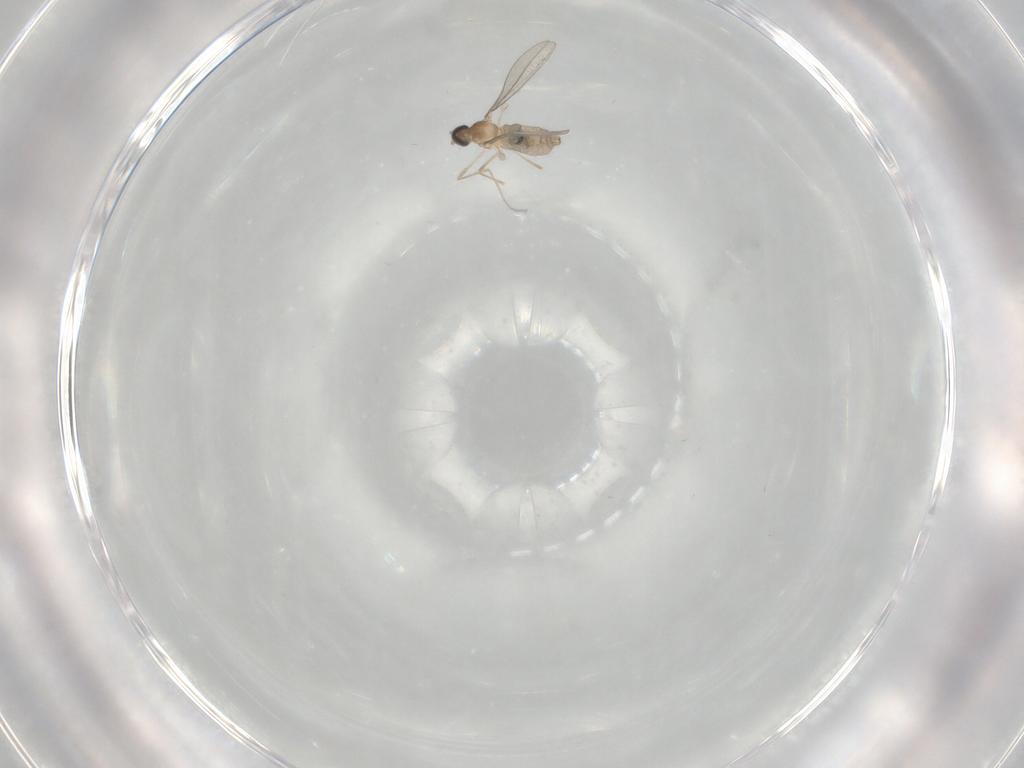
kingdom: Animalia
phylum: Arthropoda
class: Insecta
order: Diptera
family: Cecidomyiidae
